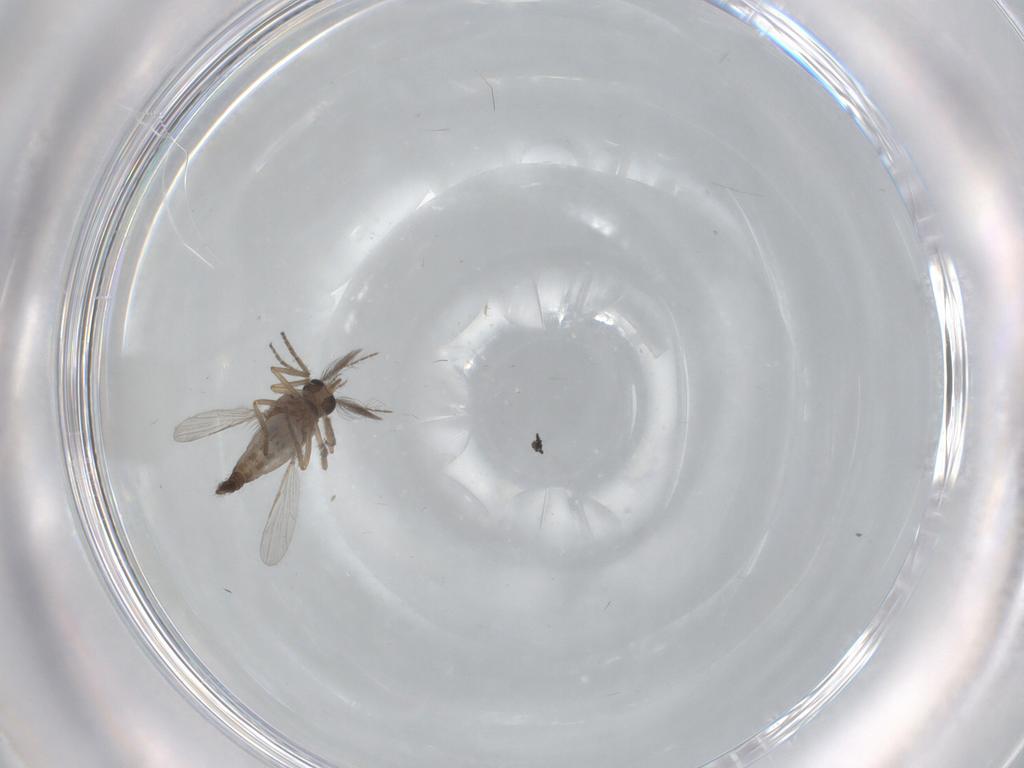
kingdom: Animalia
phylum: Arthropoda
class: Insecta
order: Diptera
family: Ceratopogonidae
